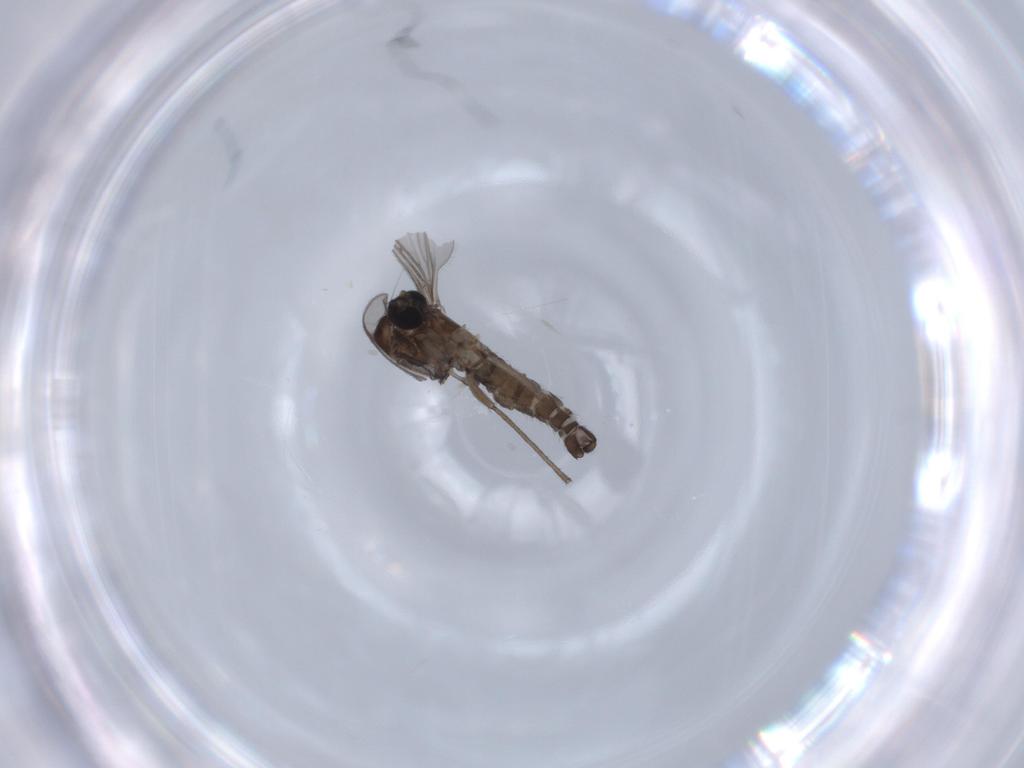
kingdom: Animalia
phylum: Arthropoda
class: Insecta
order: Diptera
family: Sciaridae
